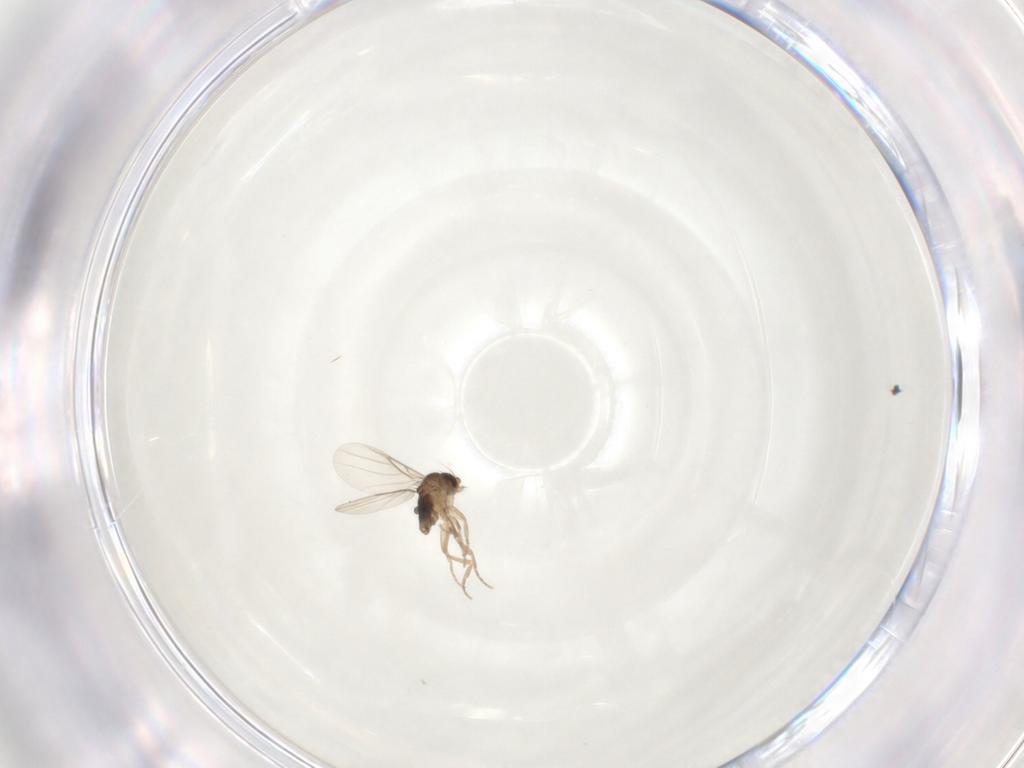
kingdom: Animalia
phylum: Arthropoda
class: Insecta
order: Diptera
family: Phoridae
